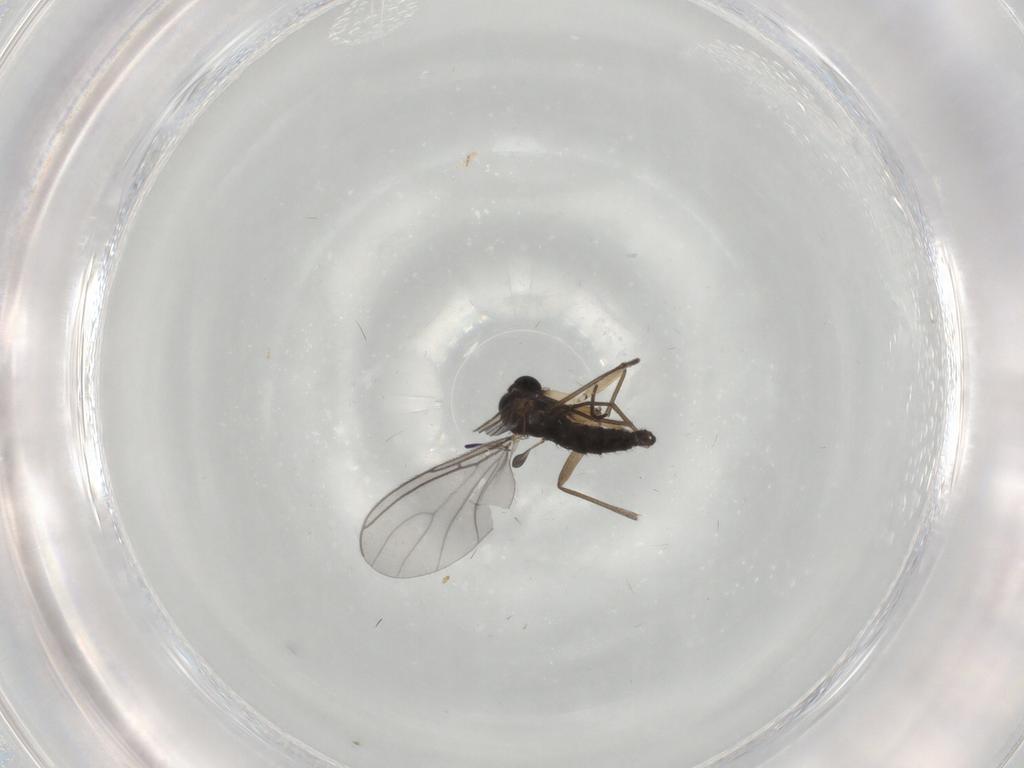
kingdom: Animalia
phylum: Arthropoda
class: Insecta
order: Diptera
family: Sciaridae
